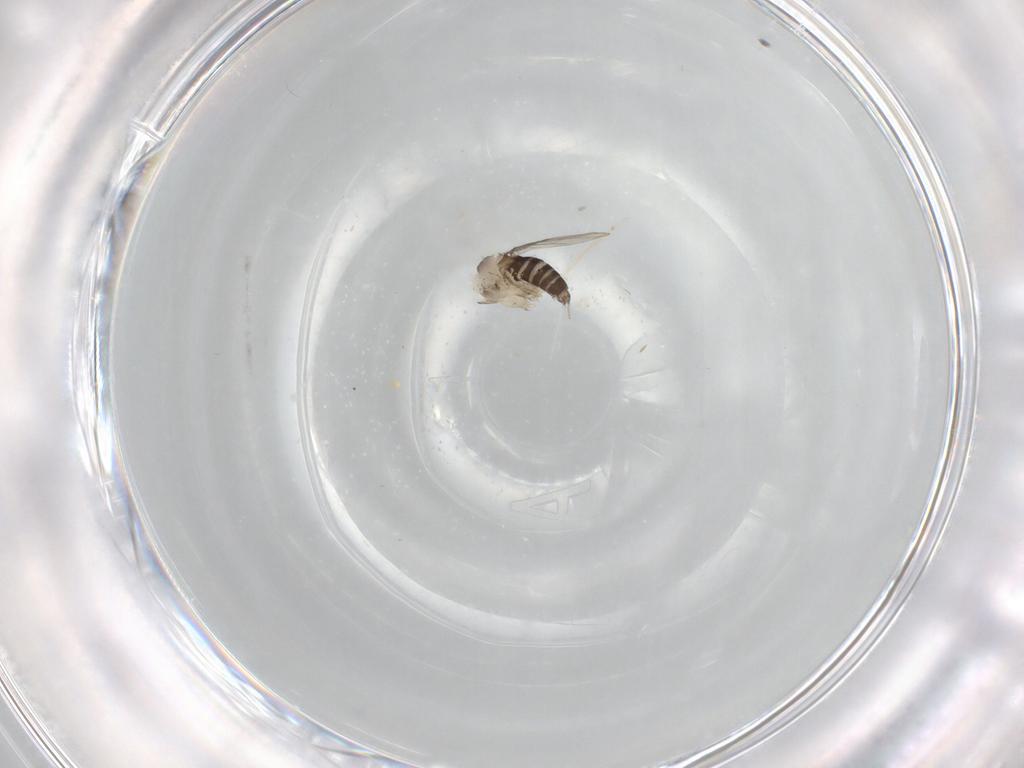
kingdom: Animalia
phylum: Arthropoda
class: Insecta
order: Diptera
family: Phoridae
